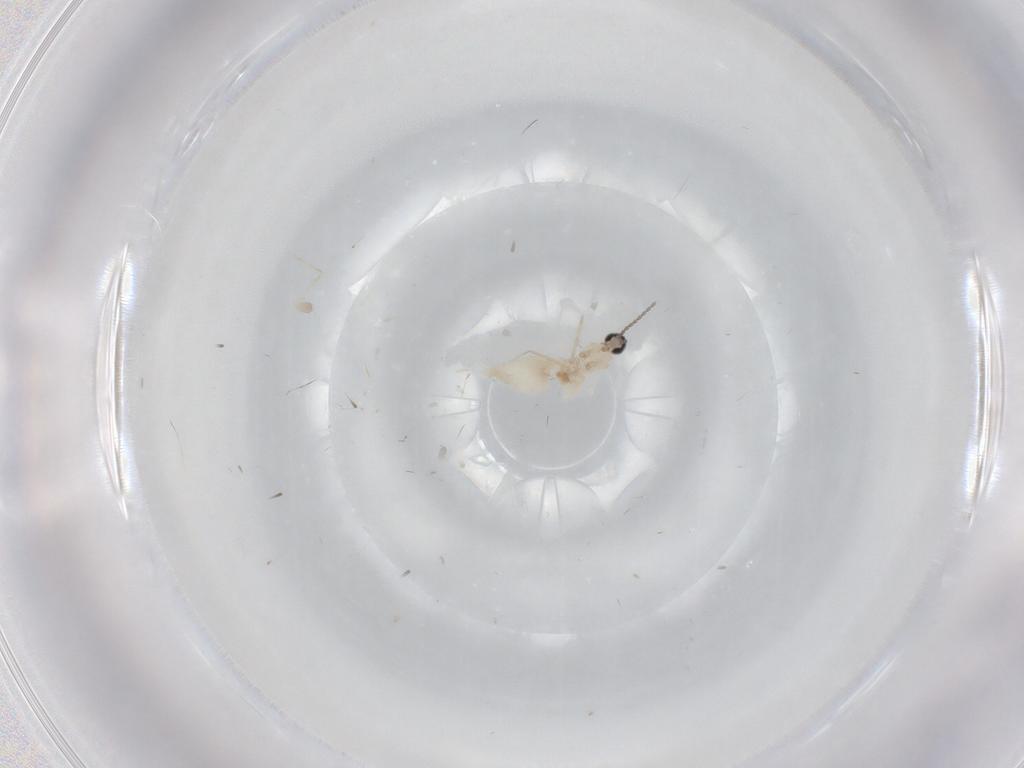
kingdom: Animalia
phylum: Arthropoda
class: Insecta
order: Diptera
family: Cecidomyiidae
